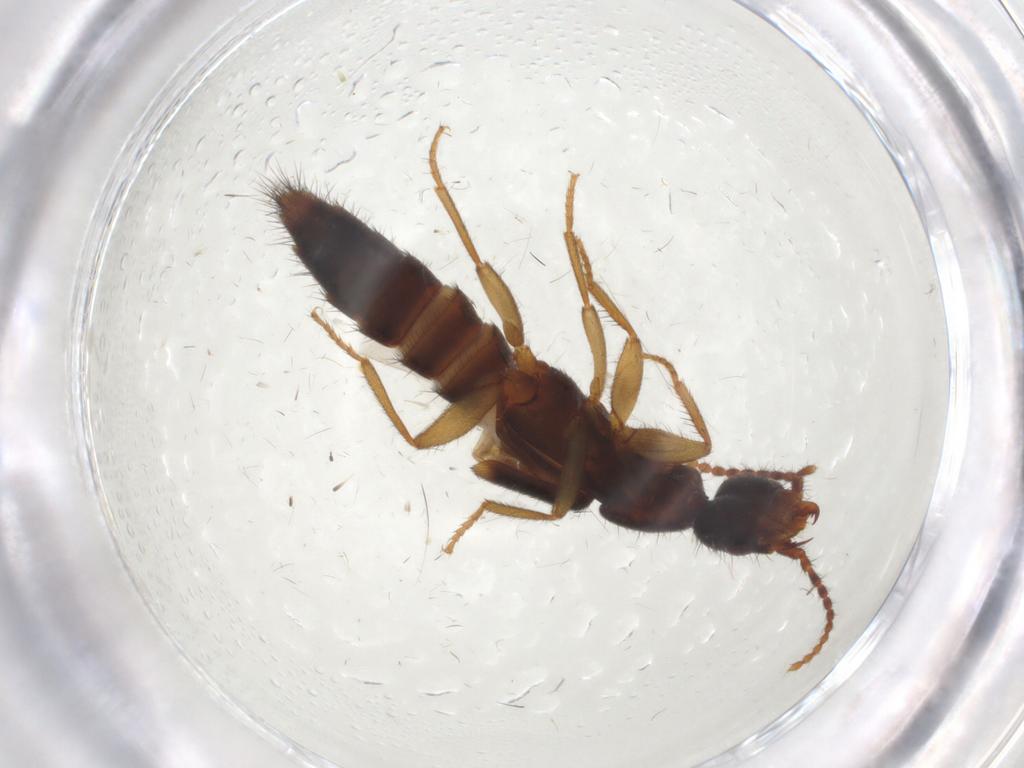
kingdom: Animalia
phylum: Arthropoda
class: Insecta
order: Coleoptera
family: Staphylinidae
